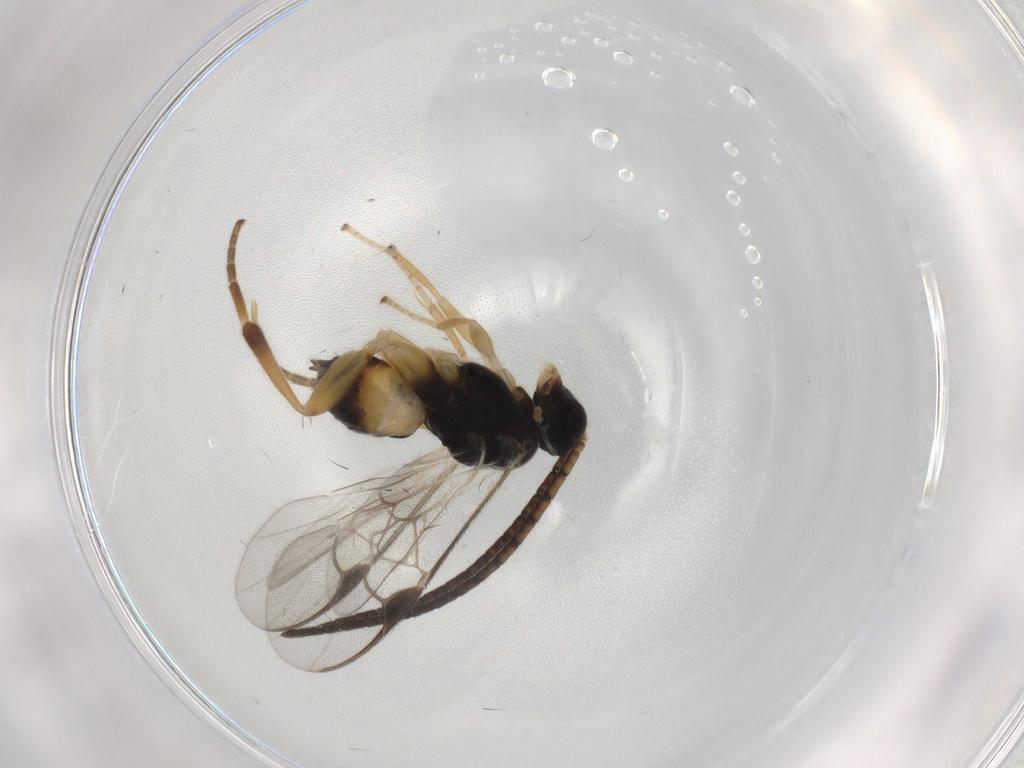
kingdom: Animalia
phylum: Arthropoda
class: Insecta
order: Hymenoptera
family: Braconidae
